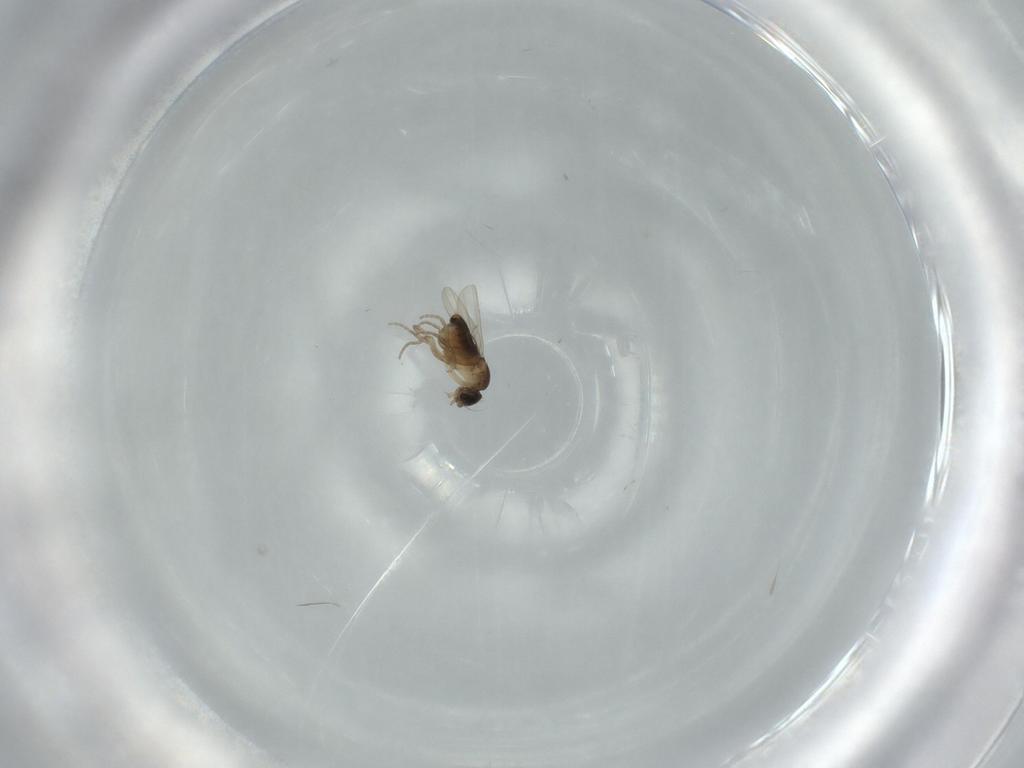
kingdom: Animalia
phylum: Arthropoda
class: Insecta
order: Diptera
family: Phoridae
